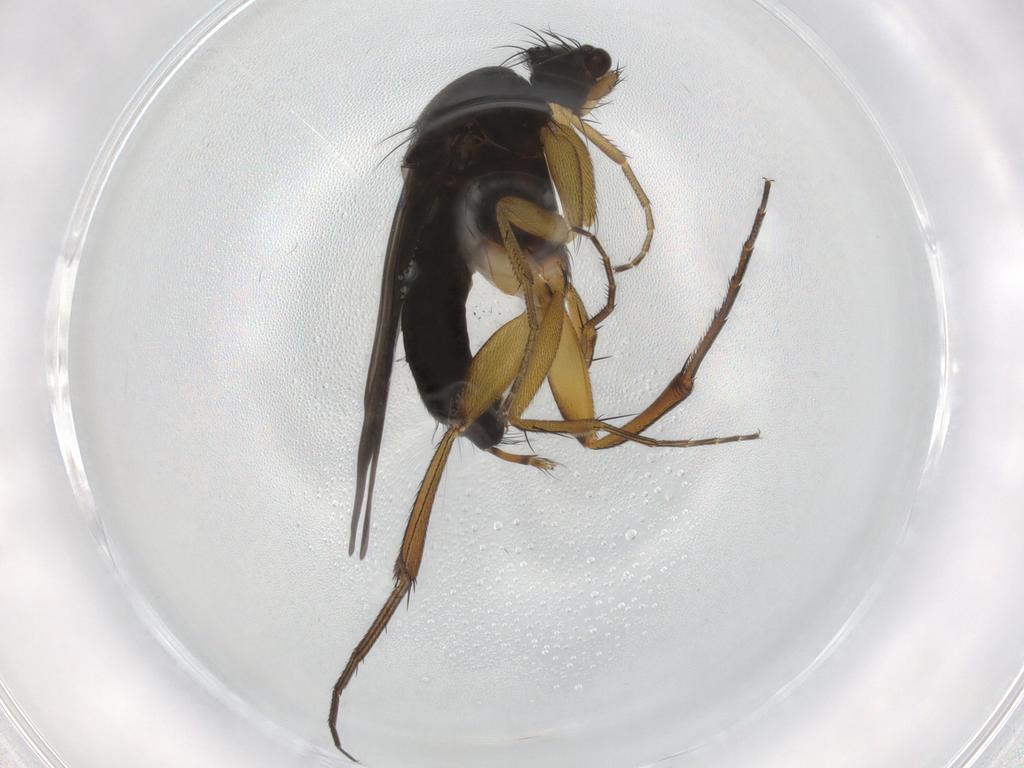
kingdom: Animalia
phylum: Arthropoda
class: Insecta
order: Diptera
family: Phoridae
